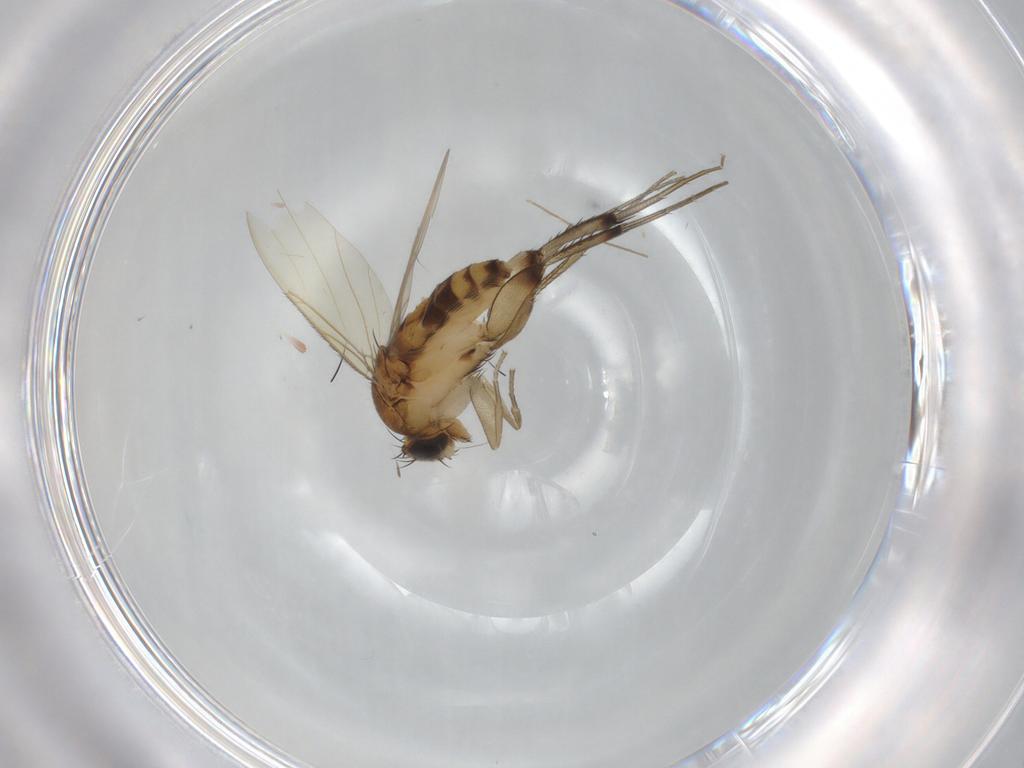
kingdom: Animalia
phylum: Arthropoda
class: Insecta
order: Diptera
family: Phoridae
